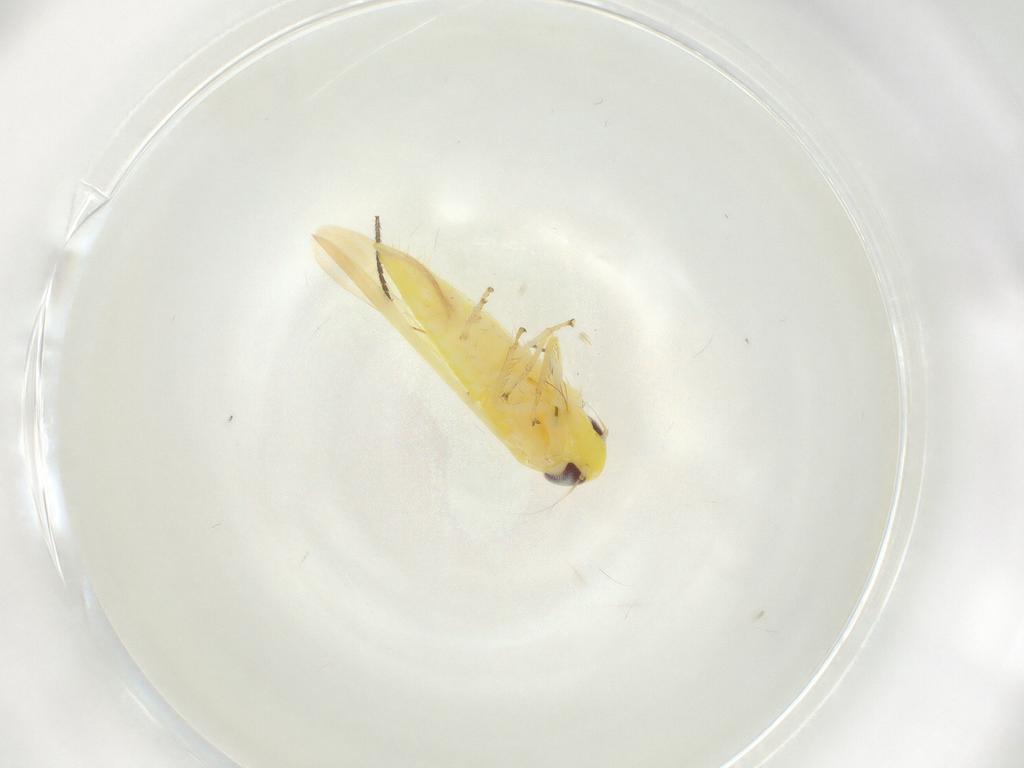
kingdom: Animalia
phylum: Arthropoda
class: Insecta
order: Hemiptera
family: Cicadellidae
